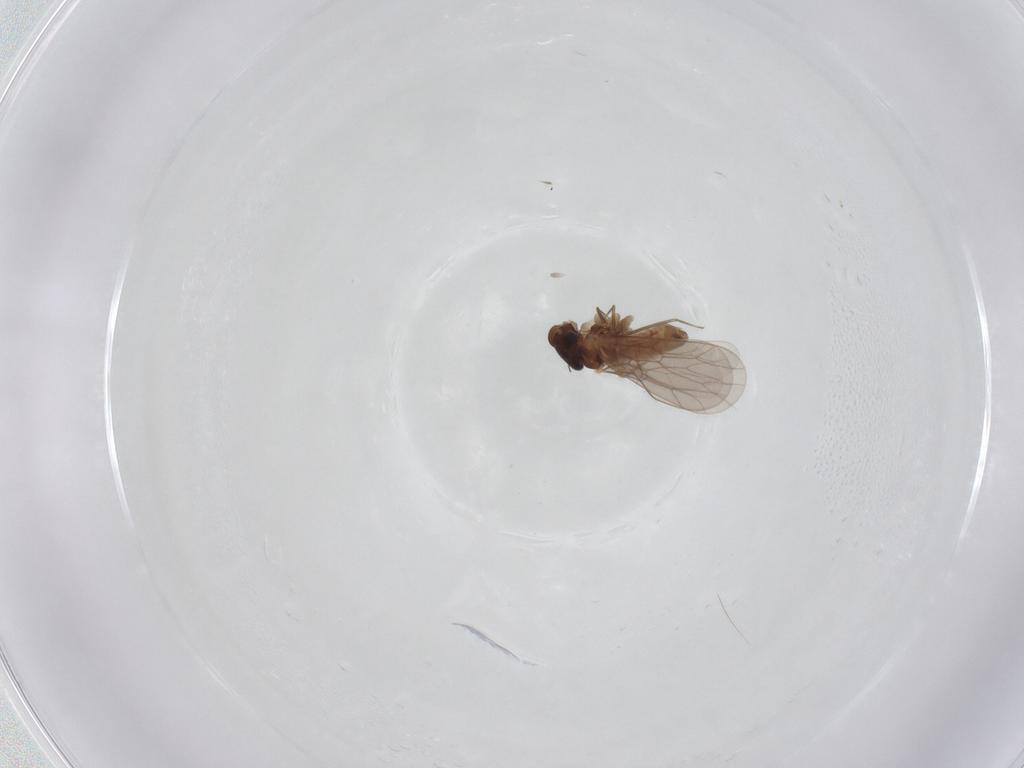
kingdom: Animalia
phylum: Arthropoda
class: Insecta
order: Psocodea
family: Lepidopsocidae
